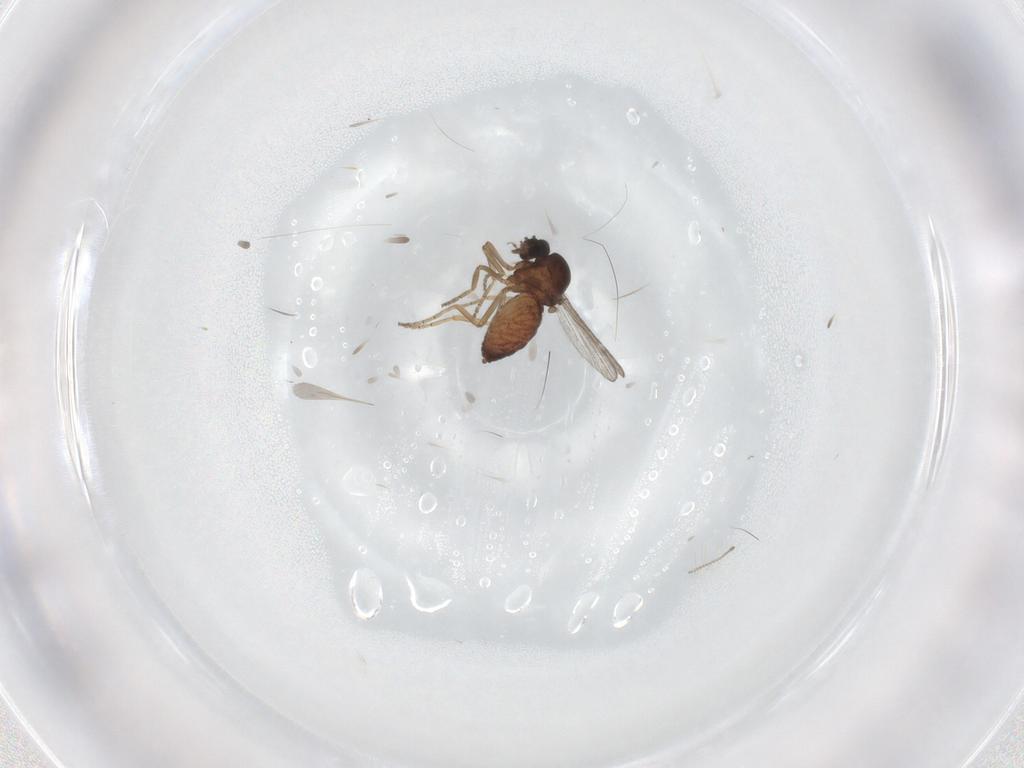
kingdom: Animalia
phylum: Arthropoda
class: Insecta
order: Diptera
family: Ceratopogonidae
